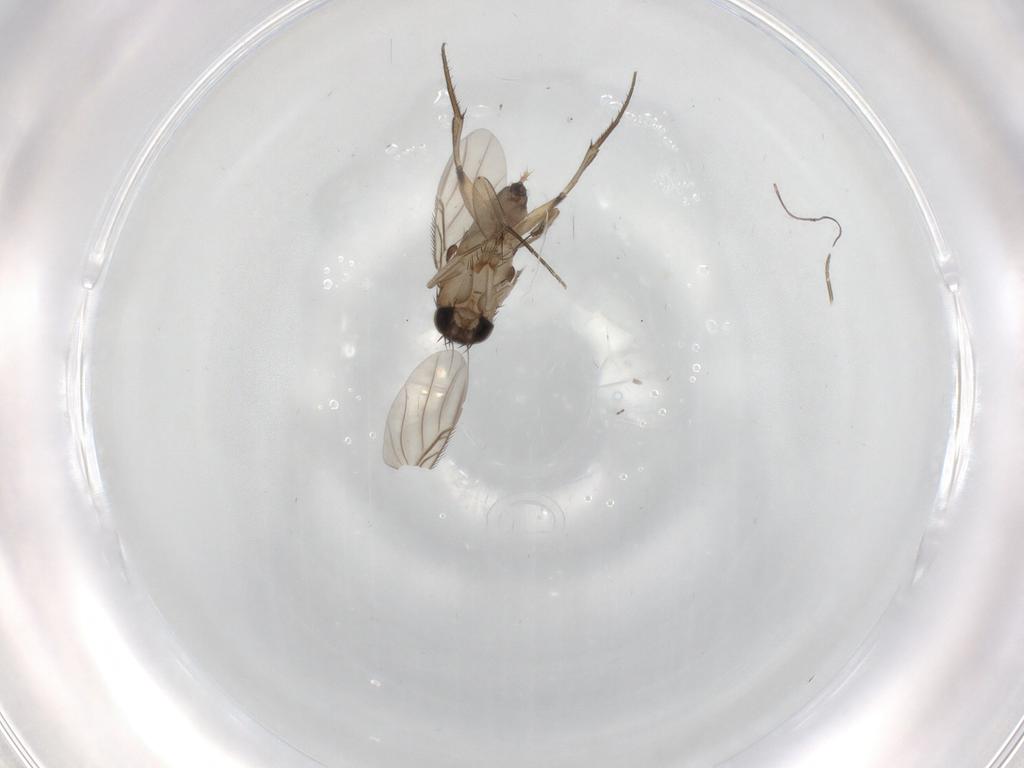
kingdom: Animalia
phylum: Arthropoda
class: Insecta
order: Diptera
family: Phoridae
